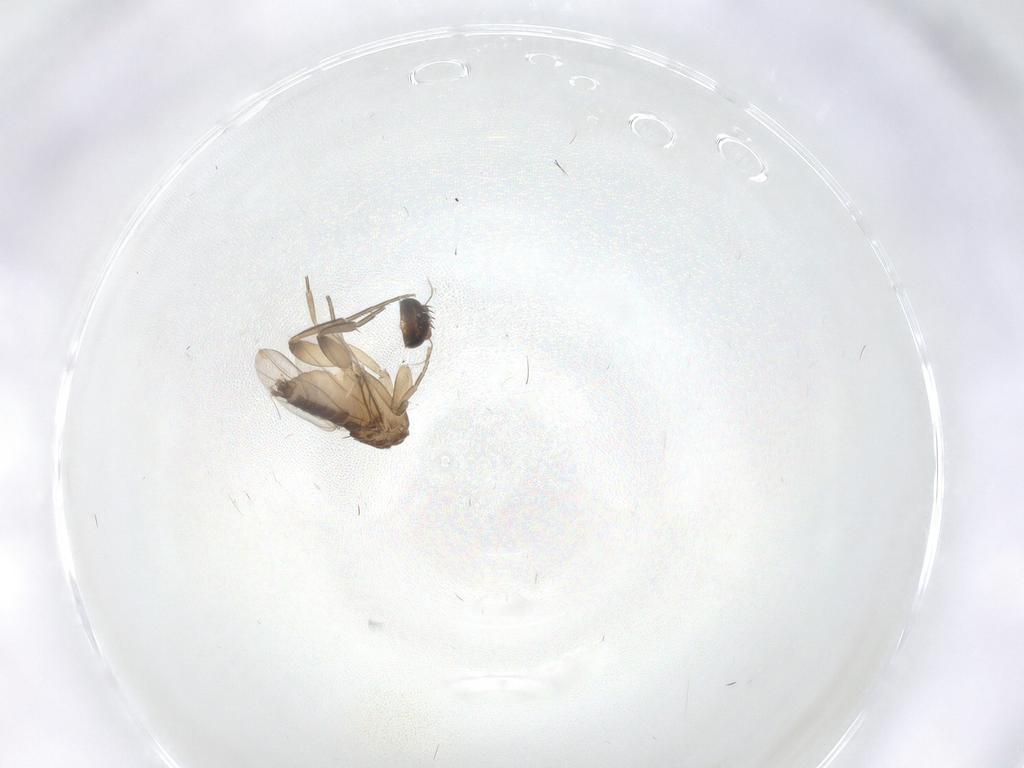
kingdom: Animalia
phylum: Arthropoda
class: Insecta
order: Diptera
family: Phoridae
